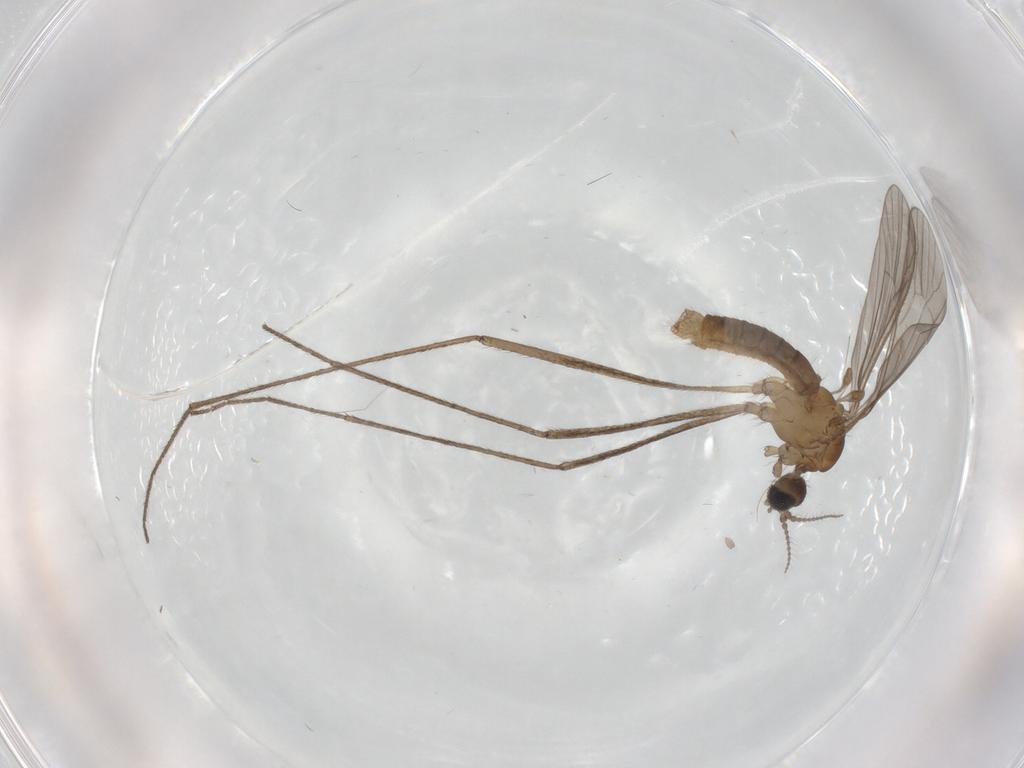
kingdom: Animalia
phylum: Arthropoda
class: Insecta
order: Diptera
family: Limoniidae
